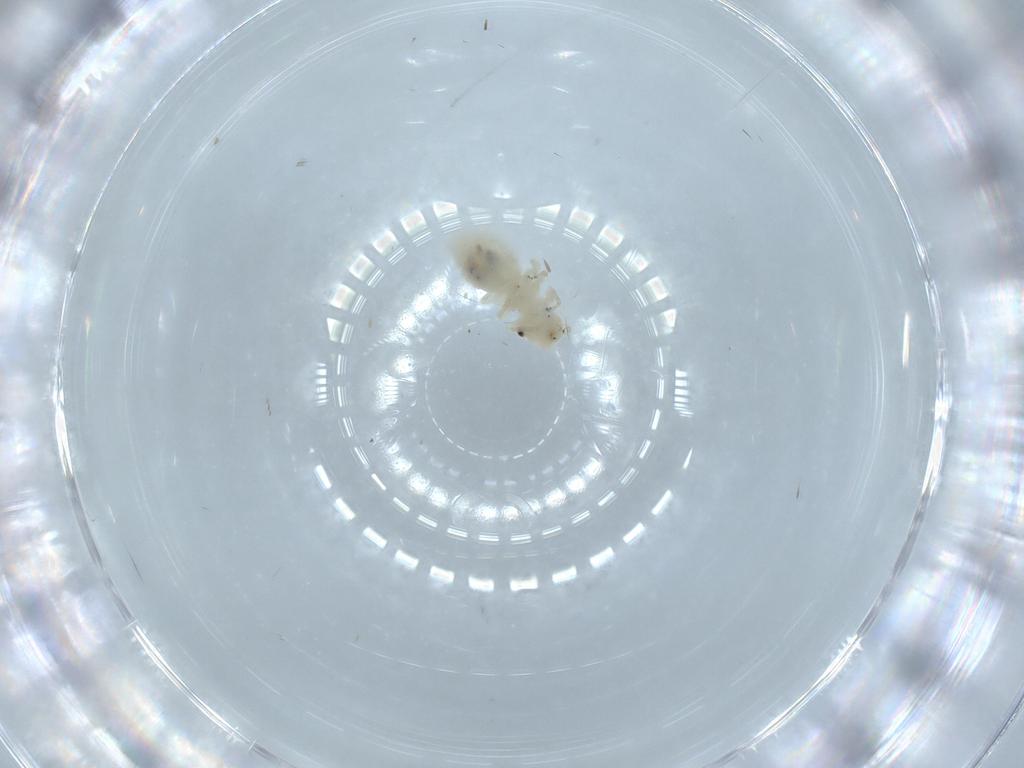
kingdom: Animalia
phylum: Arthropoda
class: Insecta
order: Psocodea
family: Caeciliusidae
